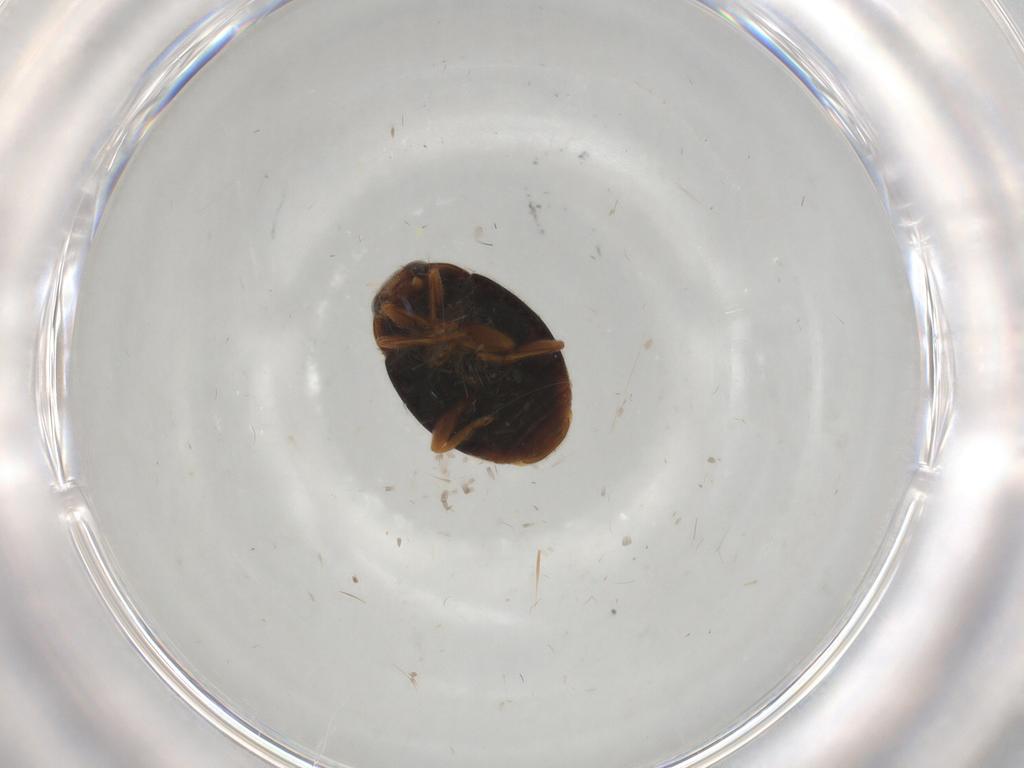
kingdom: Animalia
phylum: Arthropoda
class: Insecta
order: Coleoptera
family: Coccinellidae
